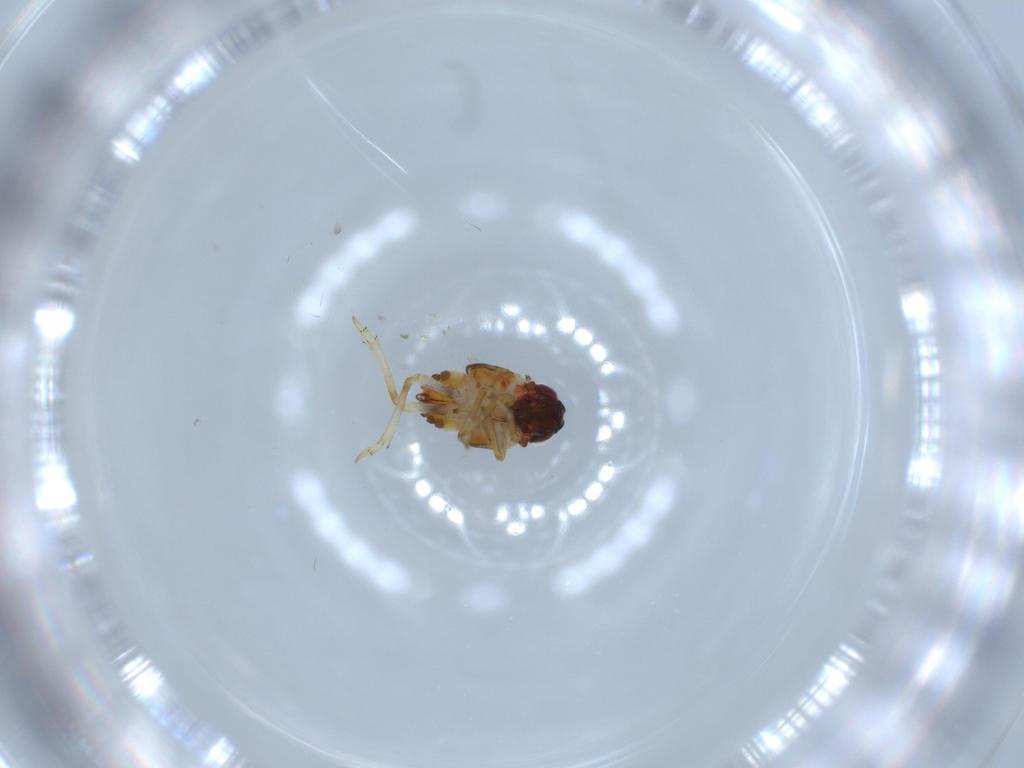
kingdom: Animalia
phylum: Arthropoda
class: Insecta
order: Hemiptera
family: Issidae
